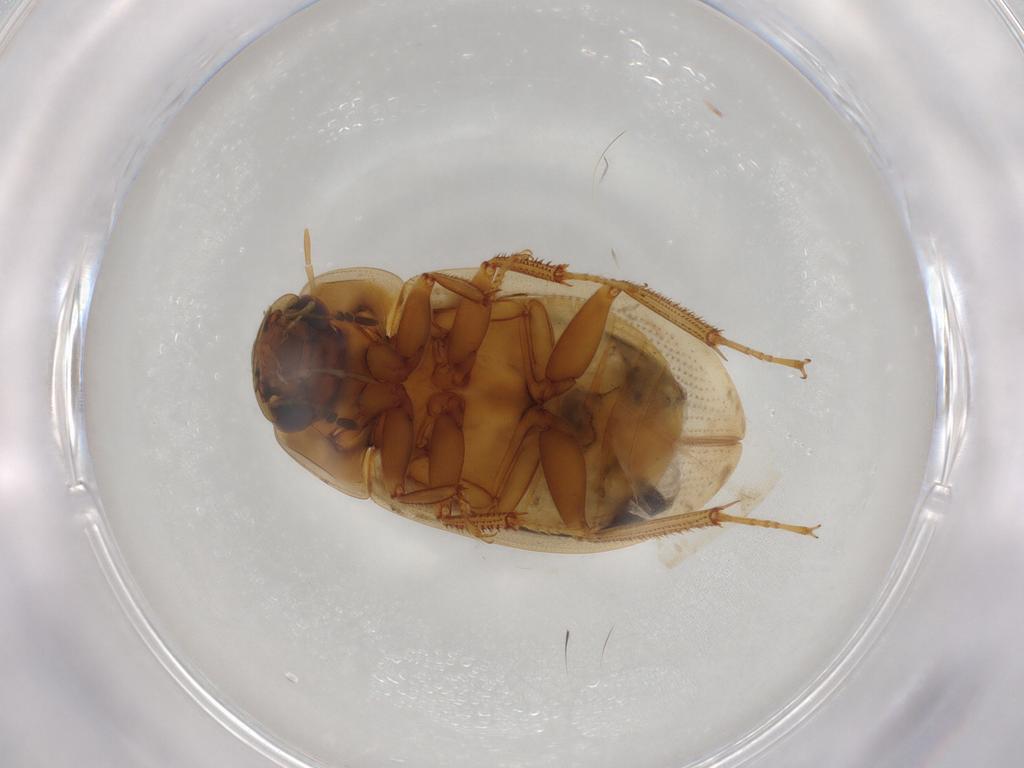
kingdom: Animalia
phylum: Arthropoda
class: Insecta
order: Coleoptera
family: Hydrophilidae
